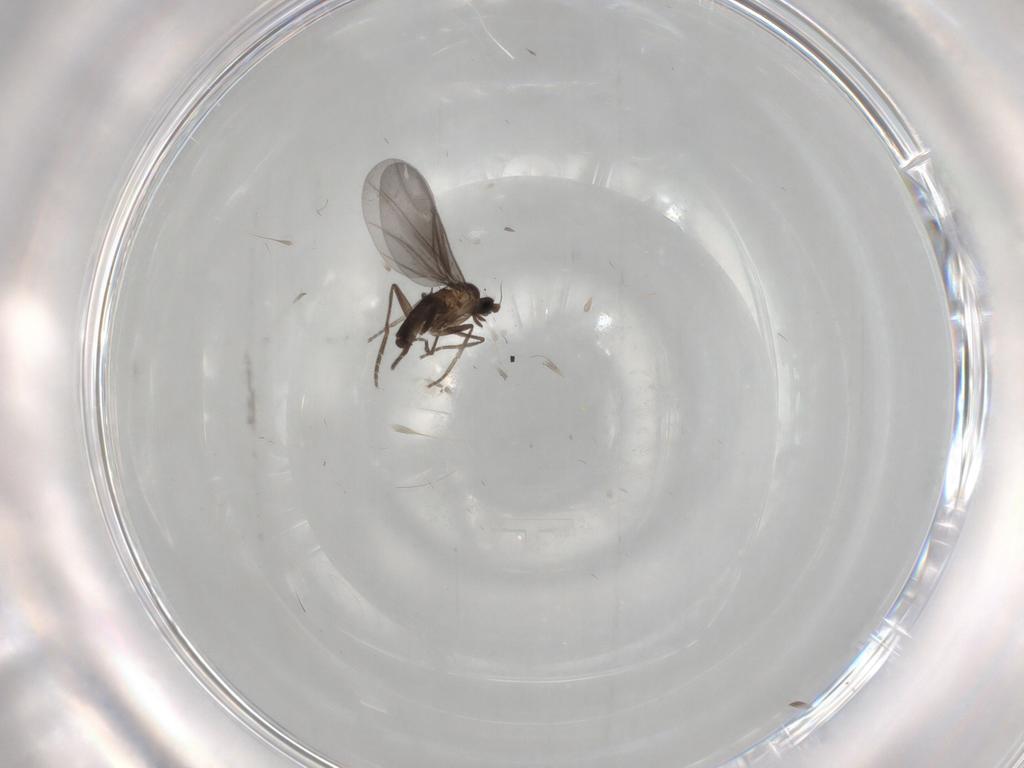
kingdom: Animalia
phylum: Arthropoda
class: Insecta
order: Diptera
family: Phoridae
